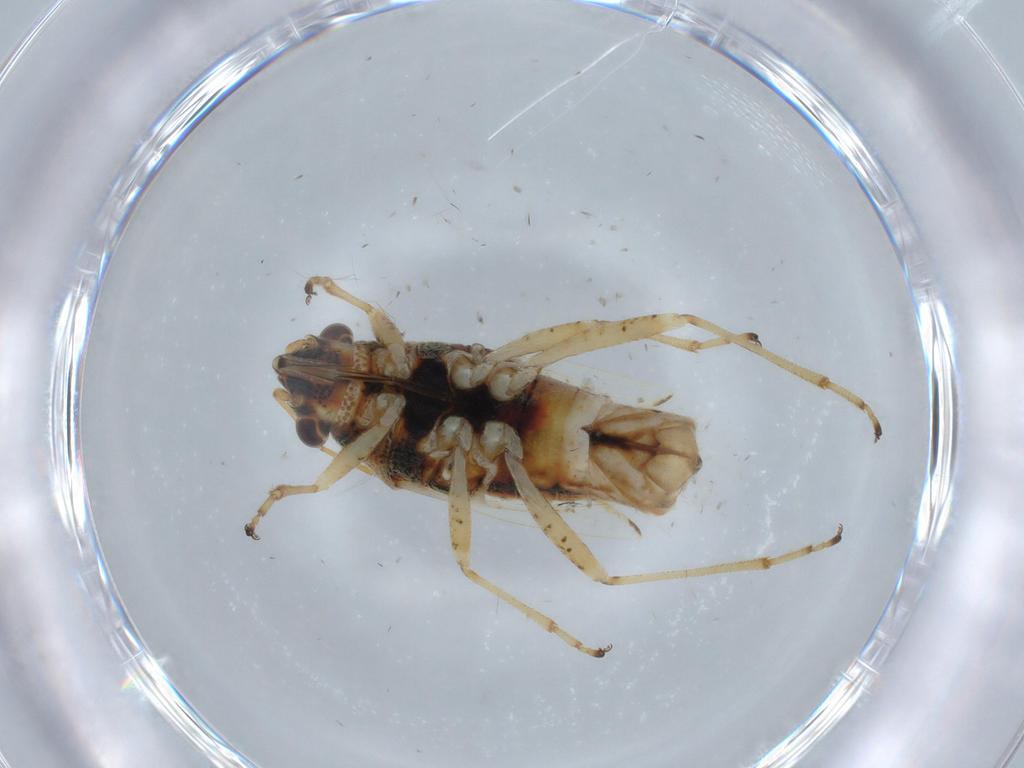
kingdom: Animalia
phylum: Arthropoda
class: Insecta
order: Hemiptera
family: Lygaeidae
